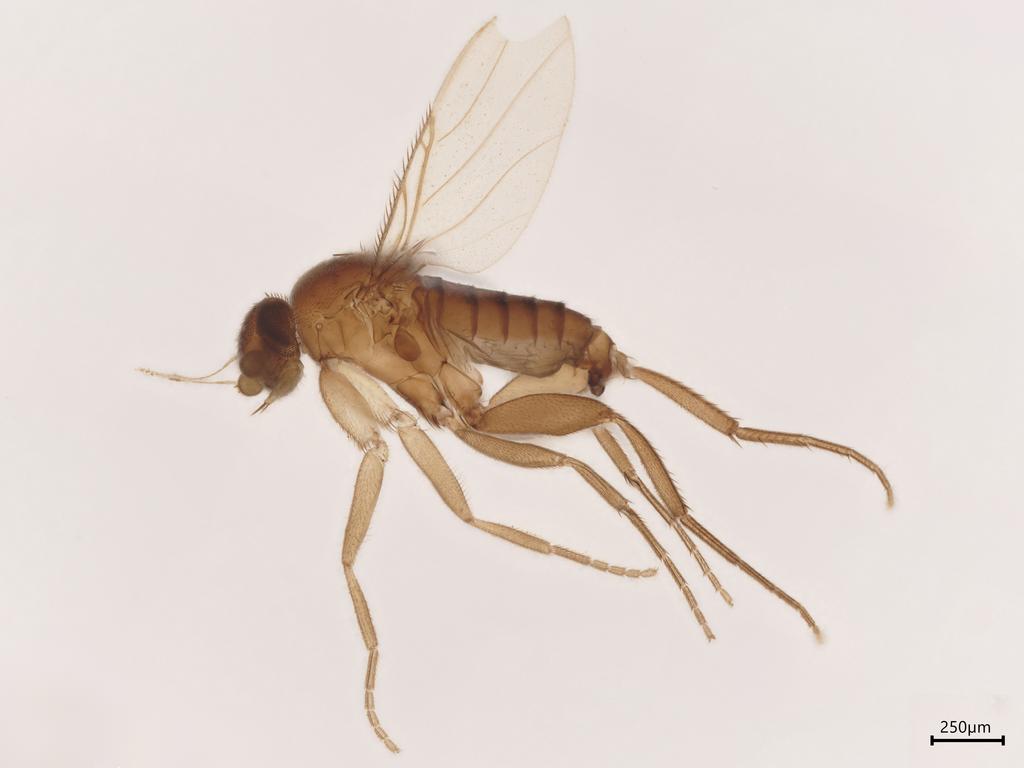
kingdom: Animalia
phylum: Arthropoda
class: Insecta
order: Diptera
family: Phoridae
